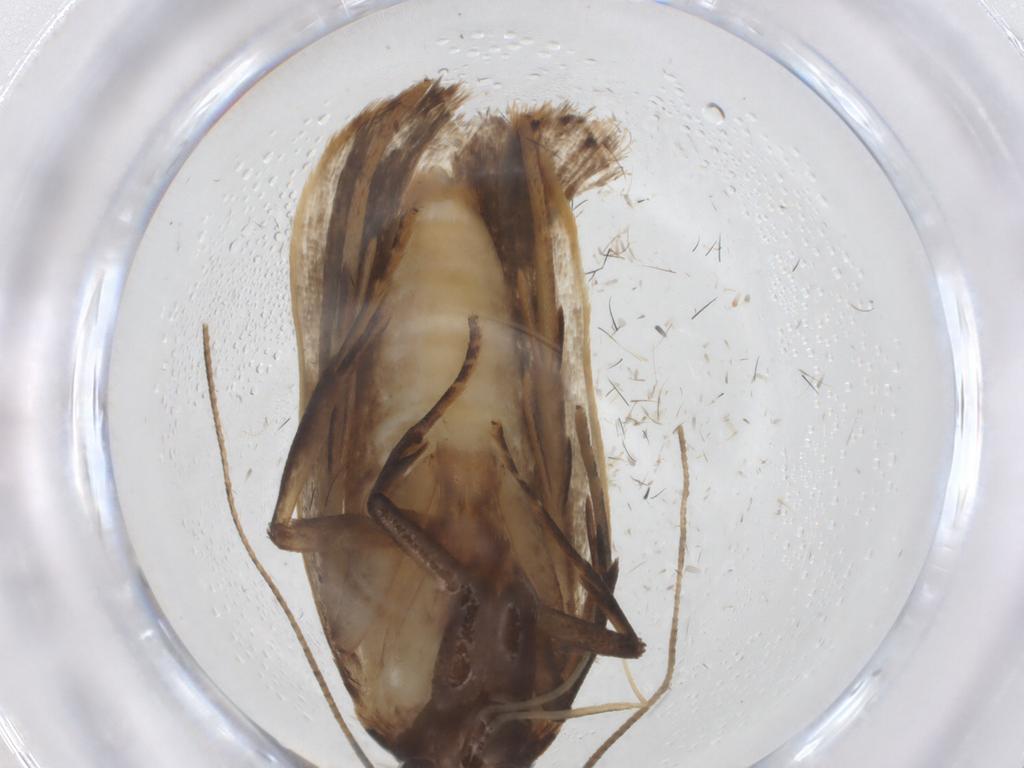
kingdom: Animalia
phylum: Arthropoda
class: Insecta
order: Lepidoptera
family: Gelechiidae
